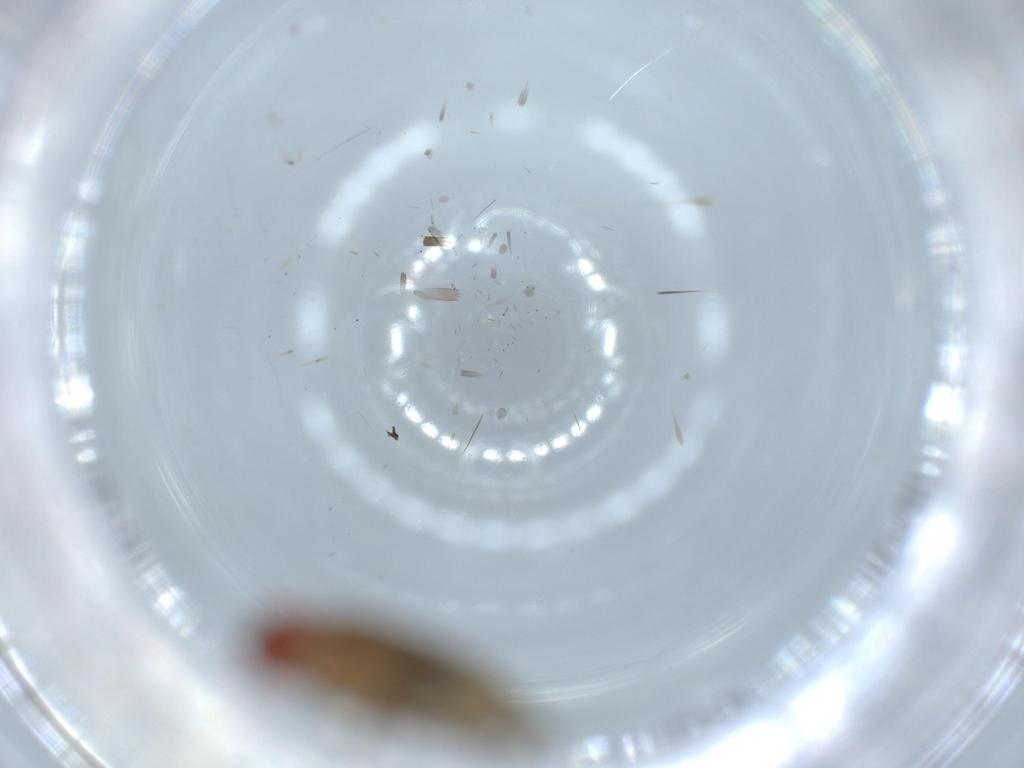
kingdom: Animalia
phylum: Arthropoda
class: Insecta
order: Diptera
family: Drosophilidae
